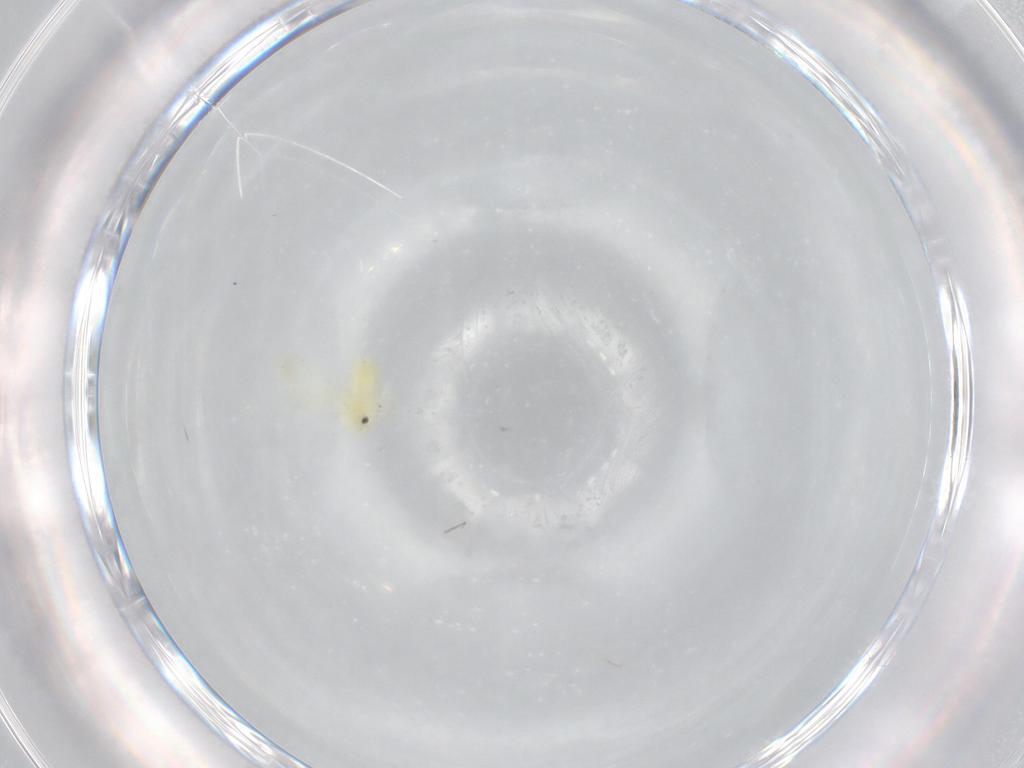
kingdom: Animalia
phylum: Arthropoda
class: Insecta
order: Hemiptera
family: Aleyrodidae
